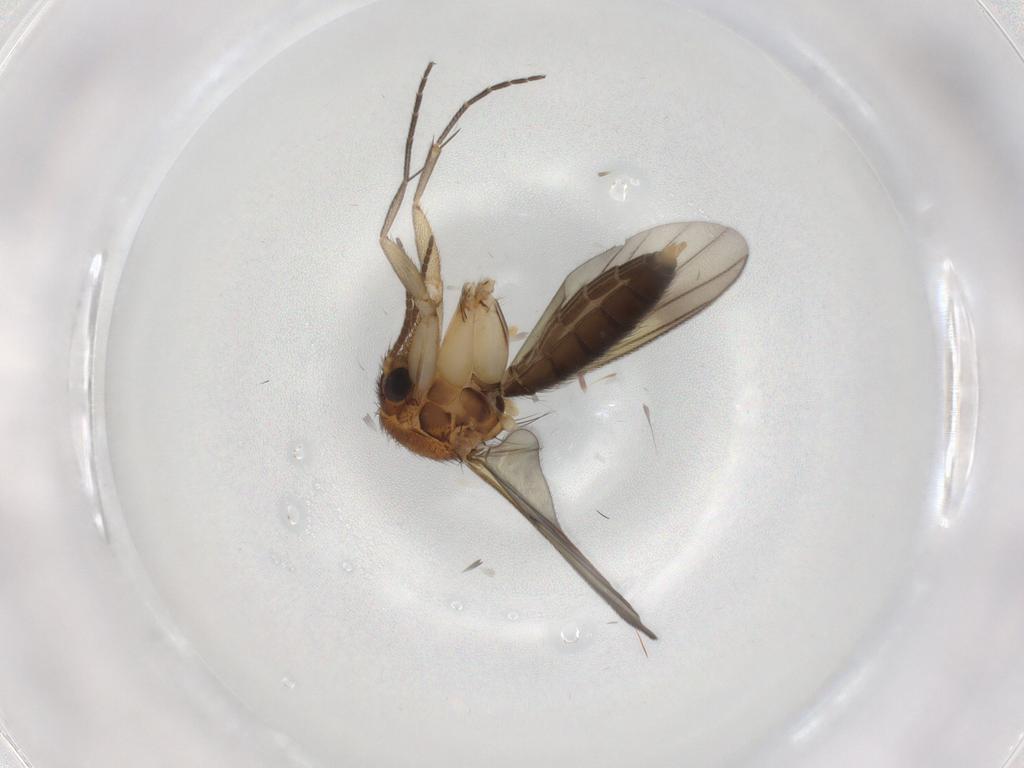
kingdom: Animalia
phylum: Arthropoda
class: Insecta
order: Diptera
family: Mycetophilidae
